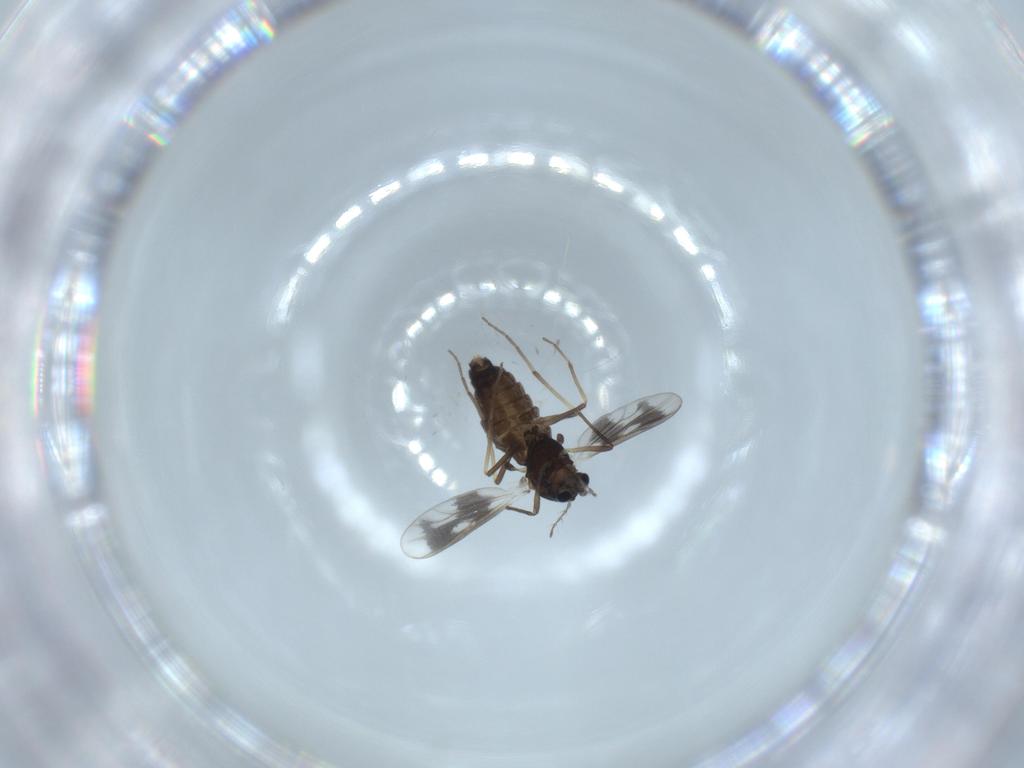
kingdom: Animalia
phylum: Arthropoda
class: Insecta
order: Diptera
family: Chironomidae
